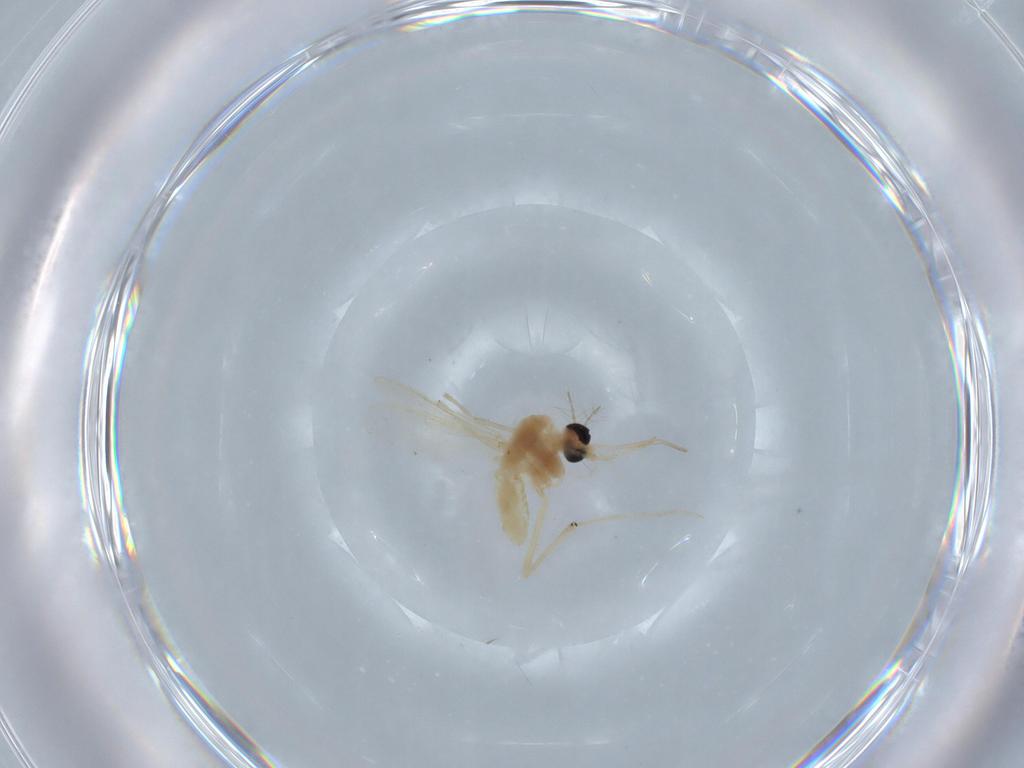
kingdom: Animalia
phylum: Arthropoda
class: Insecta
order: Diptera
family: Chironomidae
